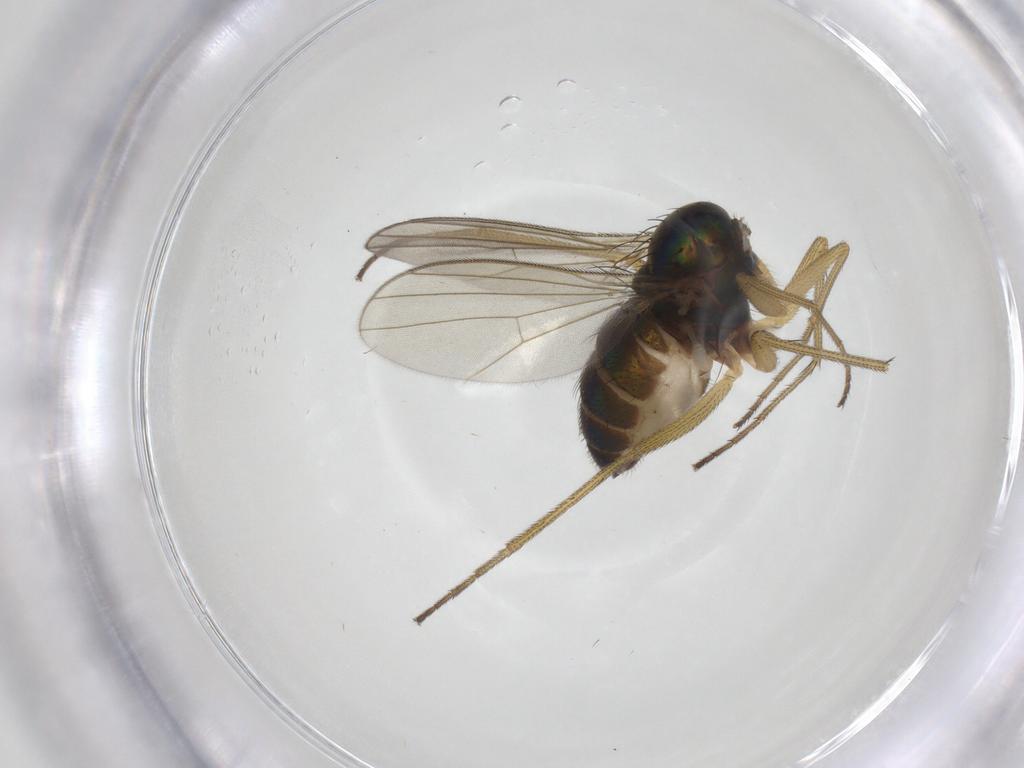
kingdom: Animalia
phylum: Arthropoda
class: Insecta
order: Diptera
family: Dolichopodidae
